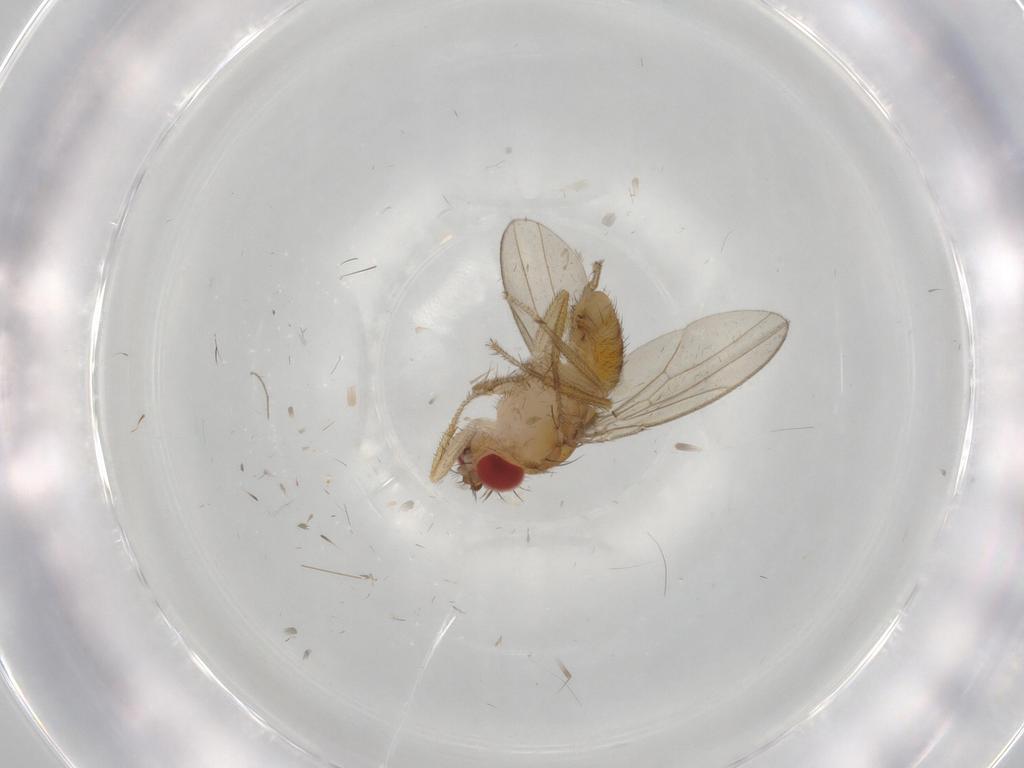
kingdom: Animalia
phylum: Arthropoda
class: Insecta
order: Diptera
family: Drosophilidae
